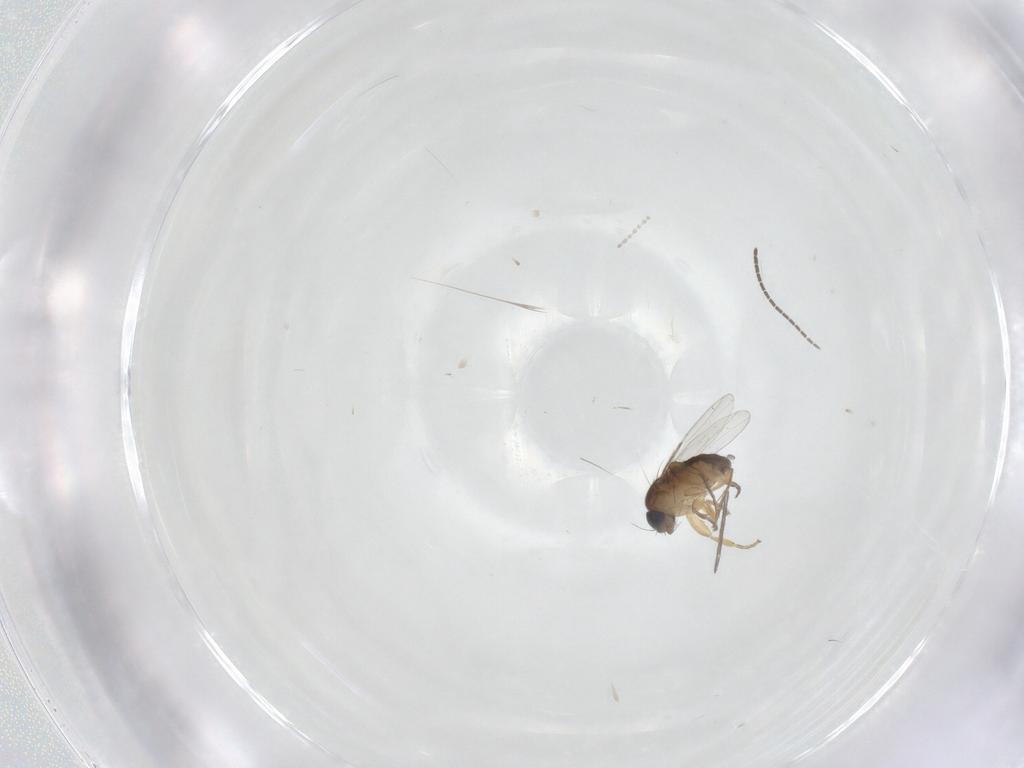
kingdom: Animalia
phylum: Arthropoda
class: Insecta
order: Diptera
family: Sciaridae
